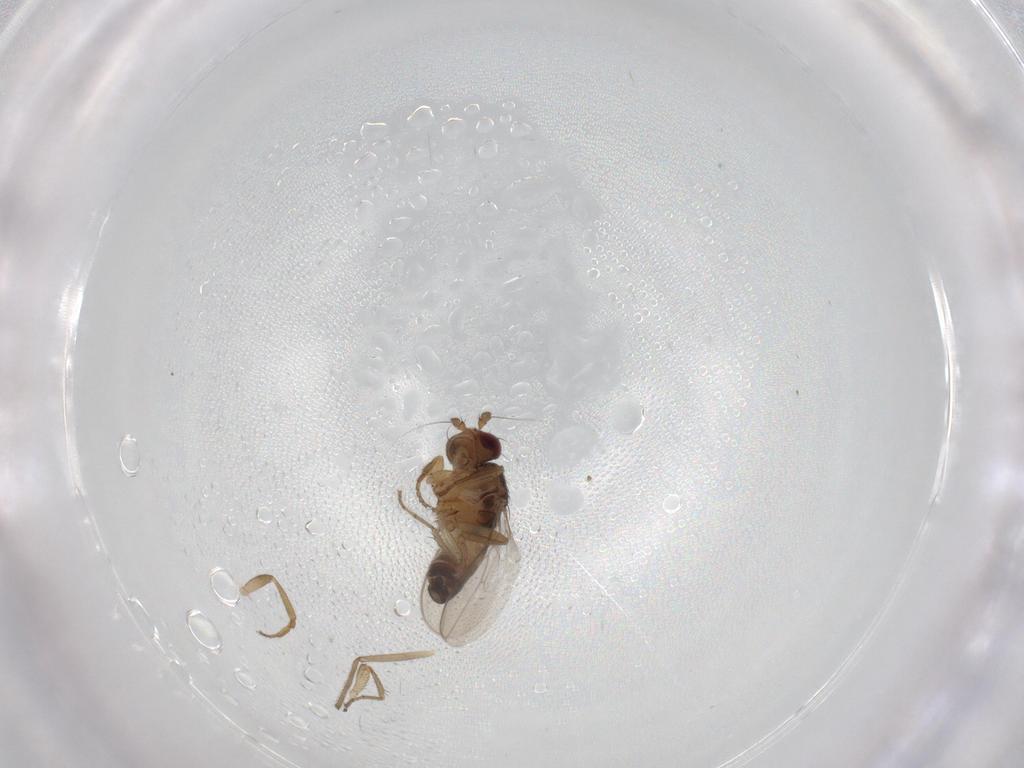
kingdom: Animalia
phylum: Arthropoda
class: Insecta
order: Diptera
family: Chironomidae
